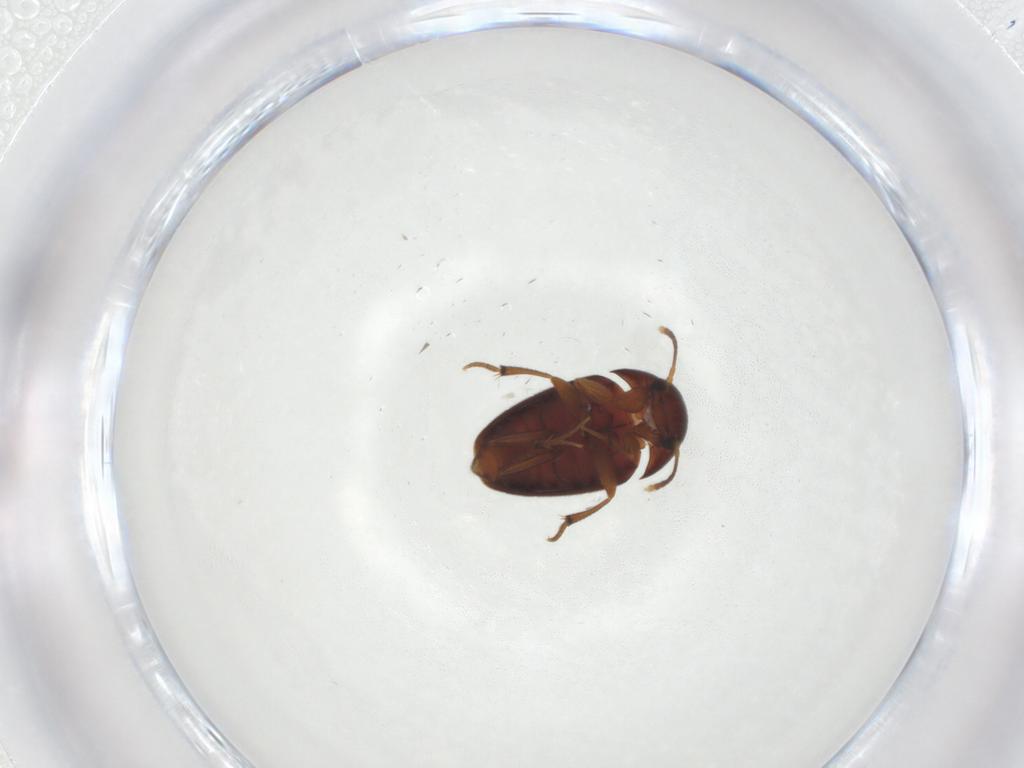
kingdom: Animalia
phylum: Arthropoda
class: Insecta
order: Coleoptera
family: Leiodidae
